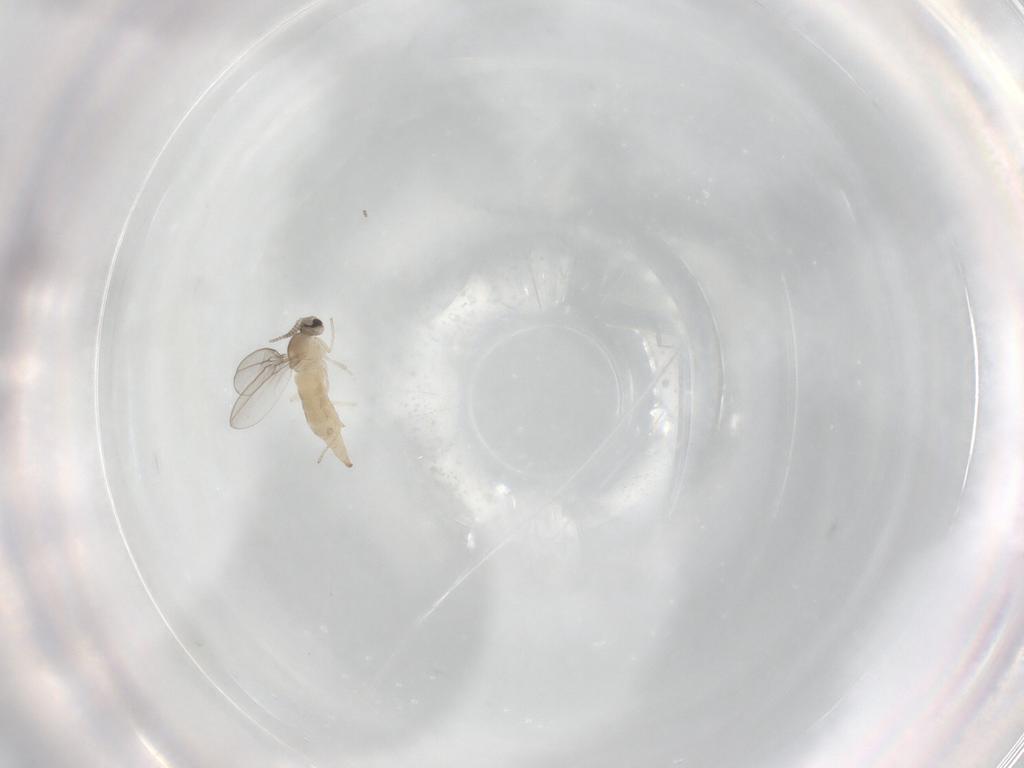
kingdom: Animalia
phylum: Arthropoda
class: Insecta
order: Diptera
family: Cecidomyiidae
